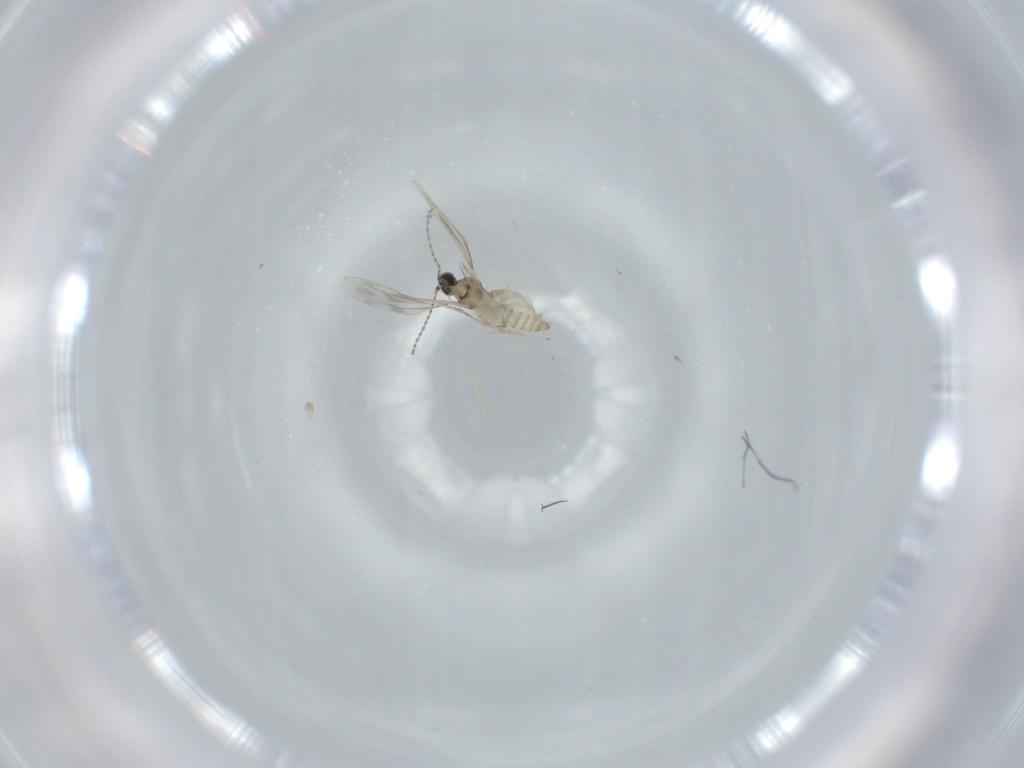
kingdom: Animalia
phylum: Arthropoda
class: Insecta
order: Diptera
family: Cecidomyiidae
